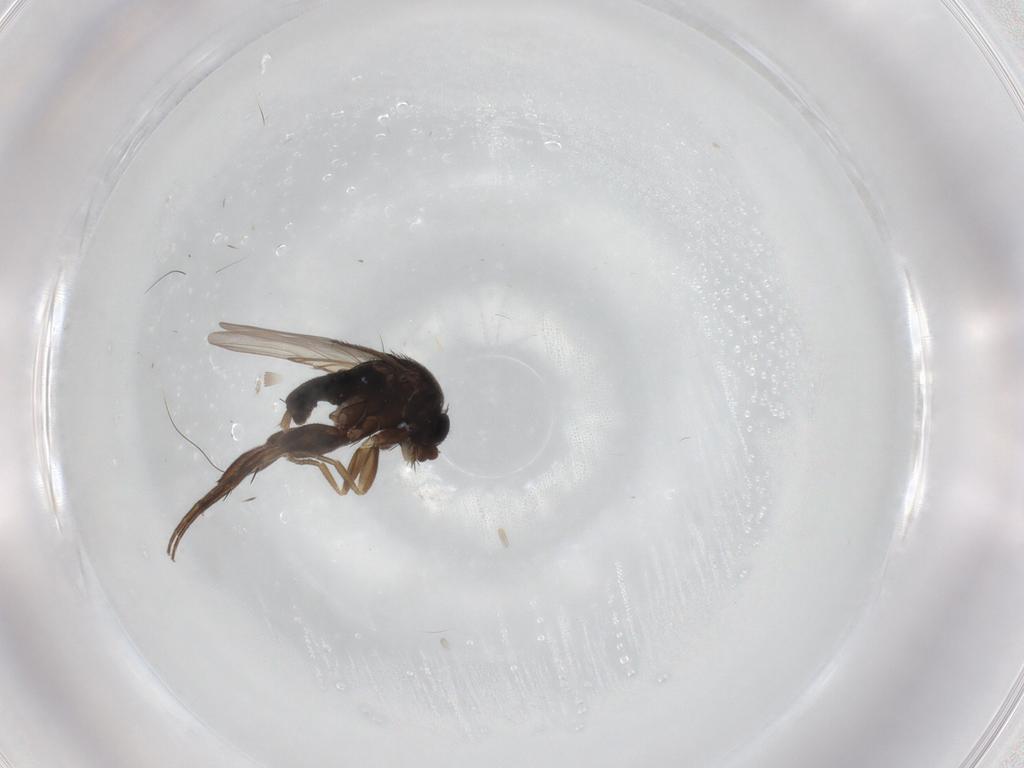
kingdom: Animalia
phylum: Arthropoda
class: Insecta
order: Diptera
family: Phoridae
